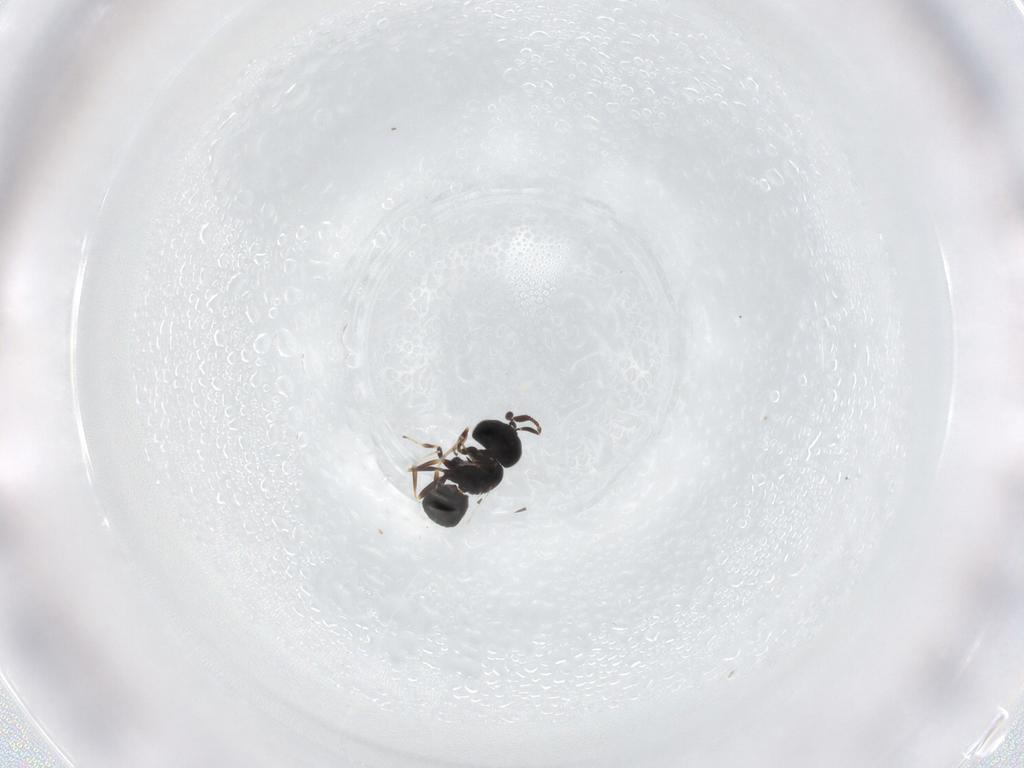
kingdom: Animalia
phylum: Arthropoda
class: Insecta
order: Hymenoptera
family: Scelionidae
